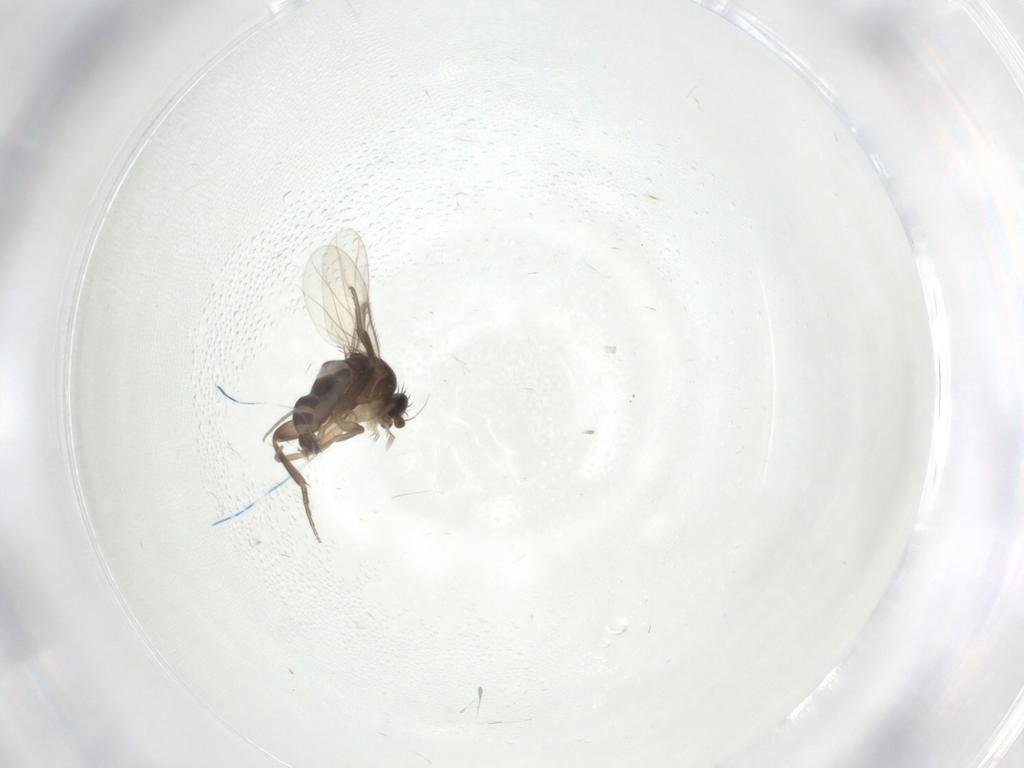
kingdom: Animalia
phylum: Arthropoda
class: Insecta
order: Diptera
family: Phoridae
